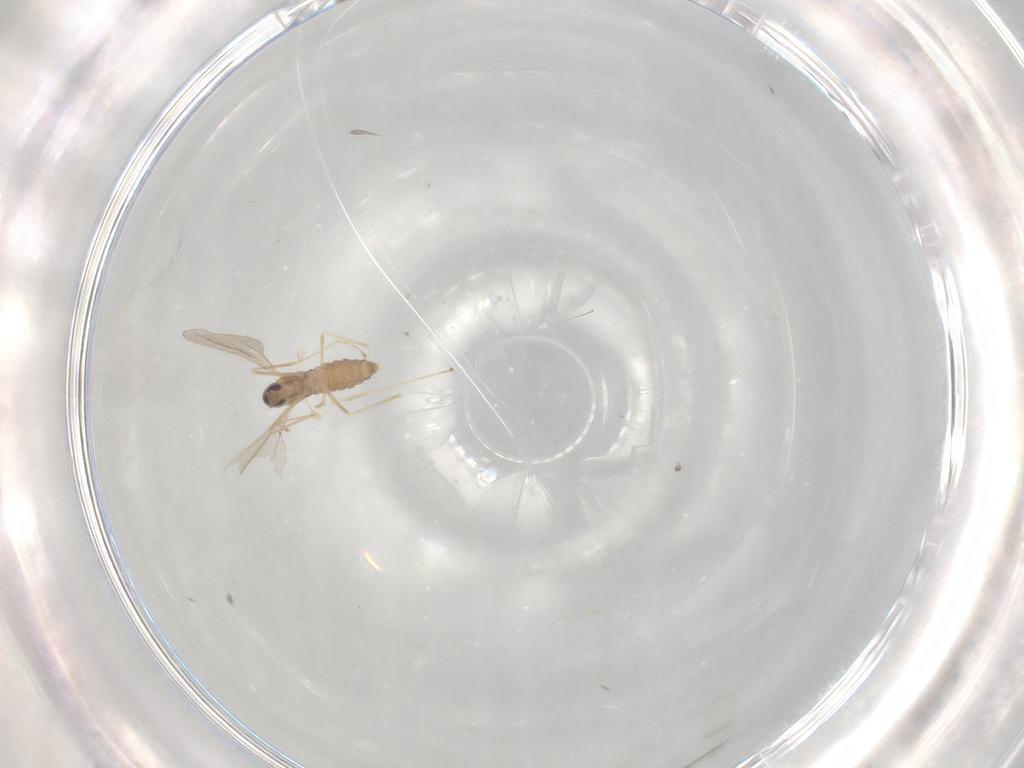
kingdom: Animalia
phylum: Arthropoda
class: Insecta
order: Diptera
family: Cecidomyiidae
